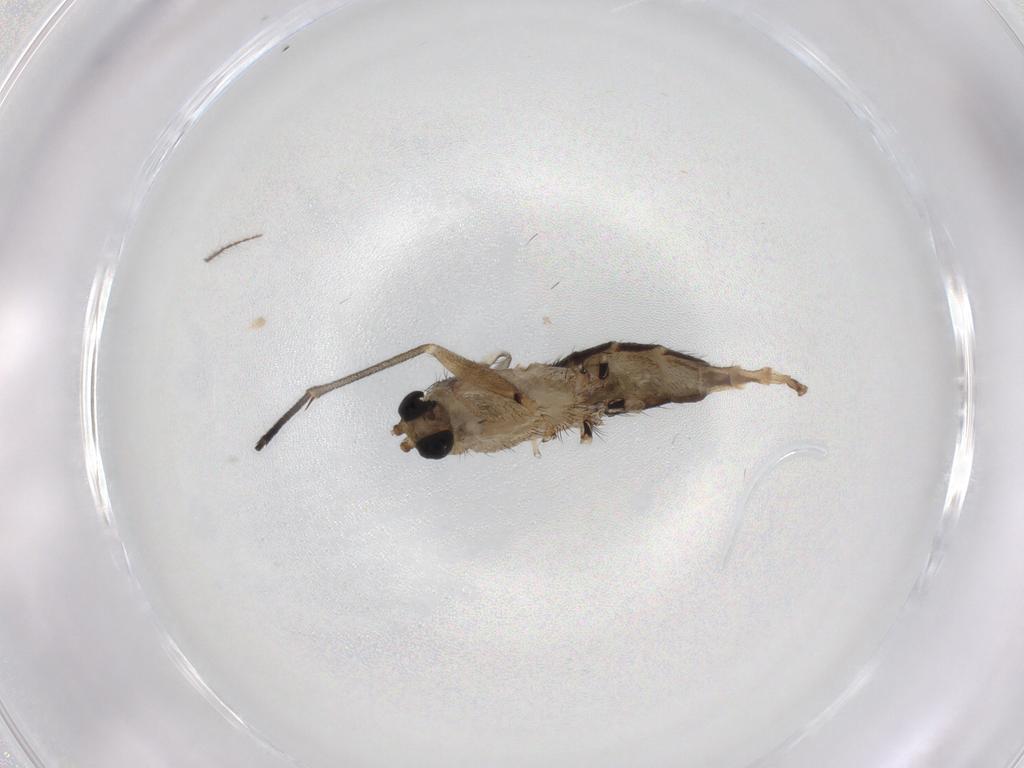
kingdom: Animalia
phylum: Arthropoda
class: Insecta
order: Diptera
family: Sciaridae
